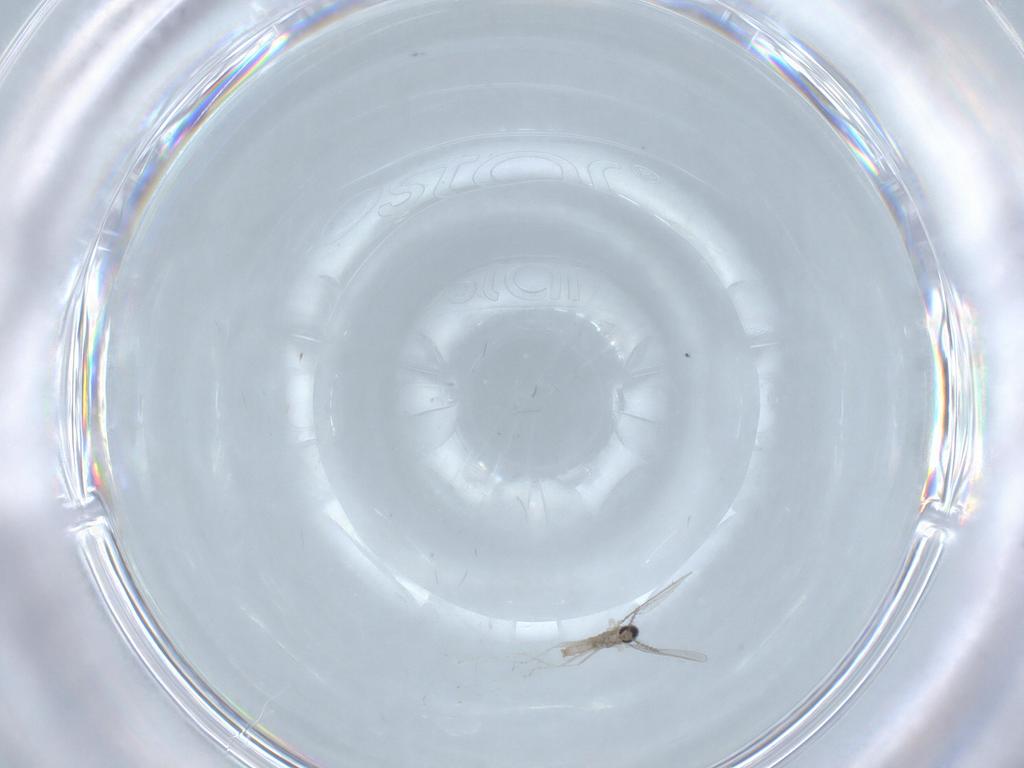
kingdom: Animalia
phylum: Arthropoda
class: Insecta
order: Diptera
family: Cecidomyiidae
